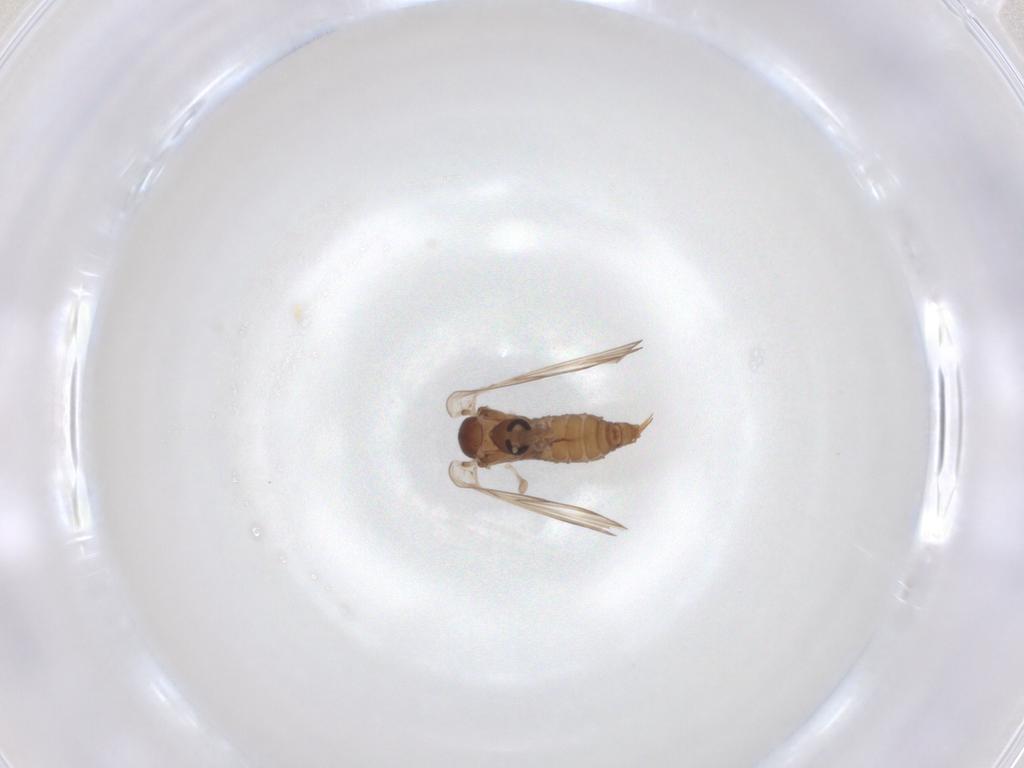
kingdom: Animalia
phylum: Arthropoda
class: Insecta
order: Diptera
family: Psychodidae
